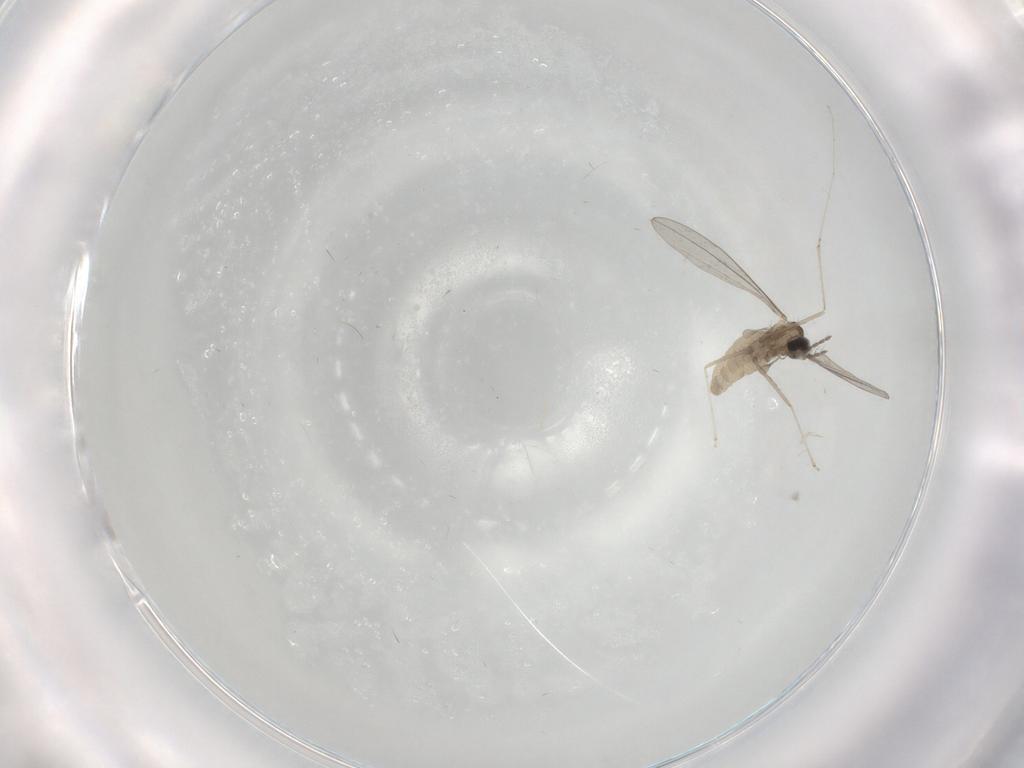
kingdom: Animalia
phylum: Arthropoda
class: Insecta
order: Diptera
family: Cecidomyiidae
